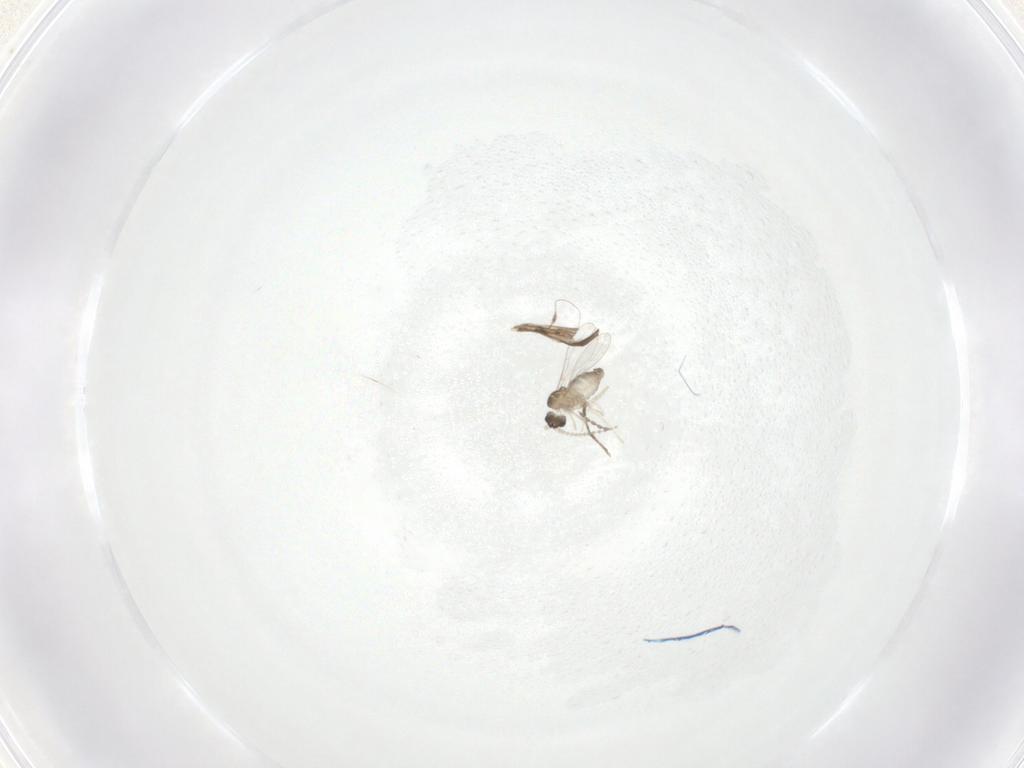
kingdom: Animalia
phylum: Arthropoda
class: Insecta
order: Diptera
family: Cecidomyiidae
